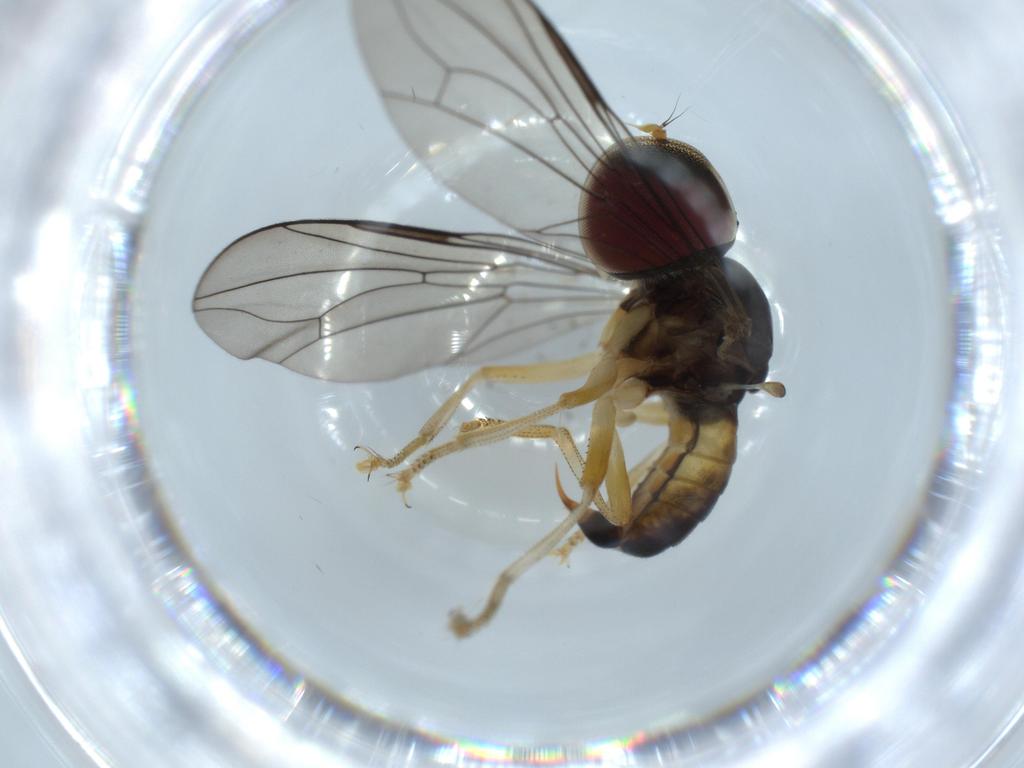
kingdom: Animalia
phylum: Arthropoda
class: Insecta
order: Diptera
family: Pipunculidae
